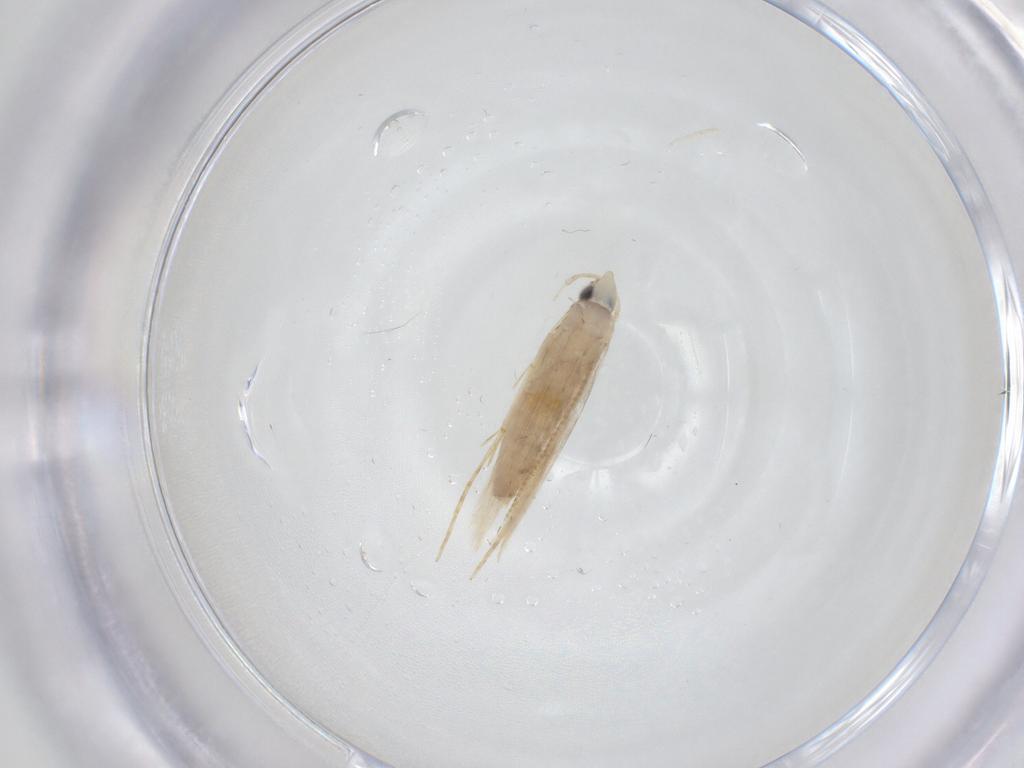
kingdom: Animalia
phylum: Arthropoda
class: Insecta
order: Lepidoptera
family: Tineidae
